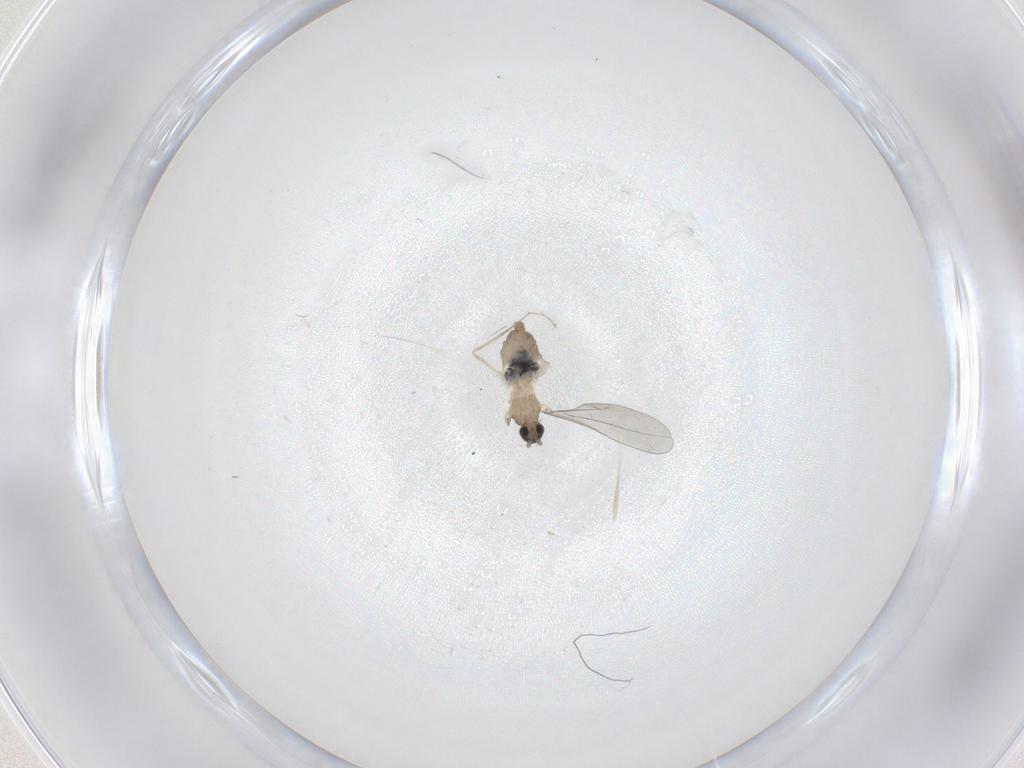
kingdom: Animalia
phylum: Arthropoda
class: Insecta
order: Diptera
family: Cecidomyiidae
